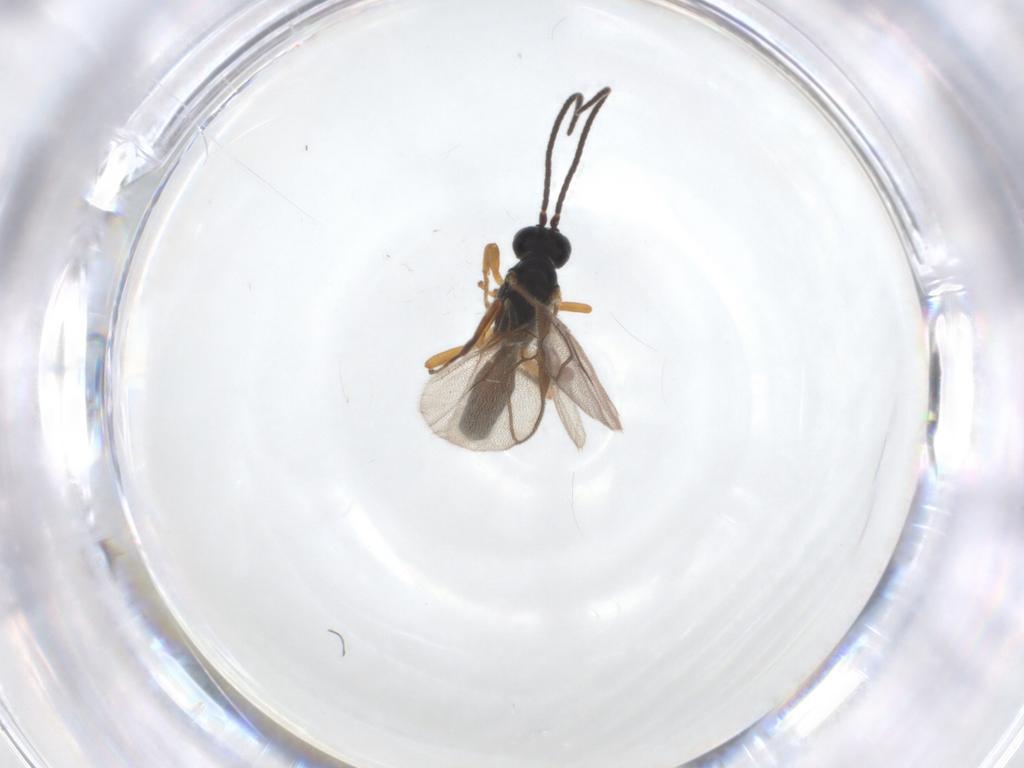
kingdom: Animalia
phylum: Arthropoda
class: Insecta
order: Hymenoptera
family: Braconidae
